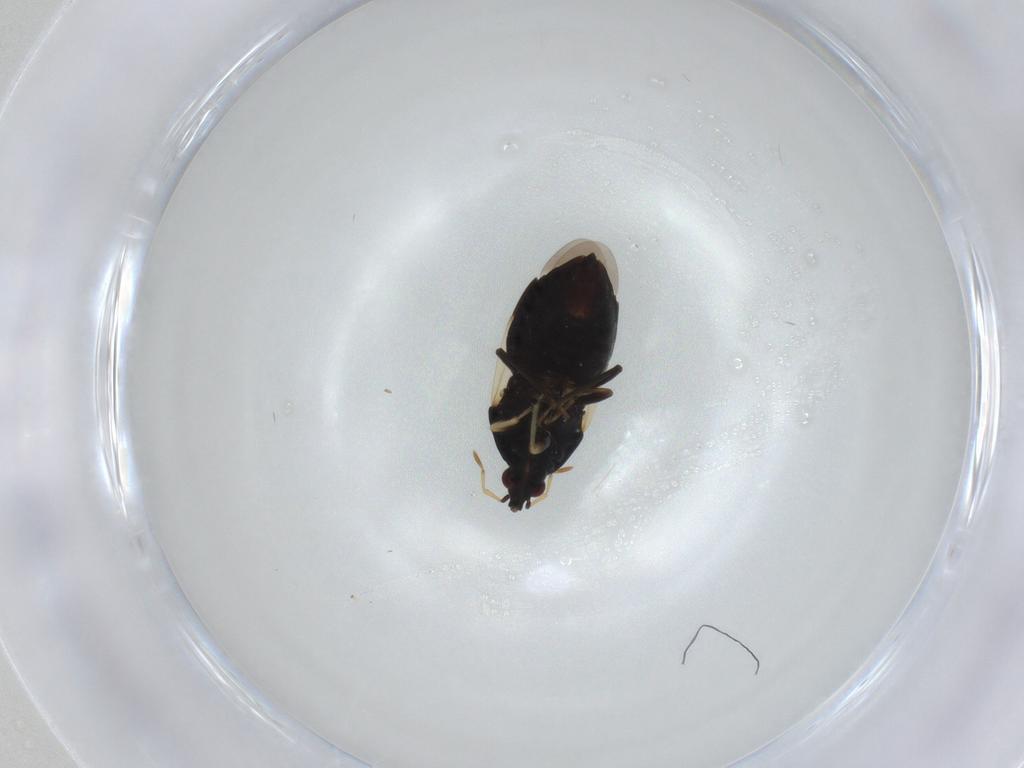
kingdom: Animalia
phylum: Arthropoda
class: Insecta
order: Hemiptera
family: Anthocoridae
